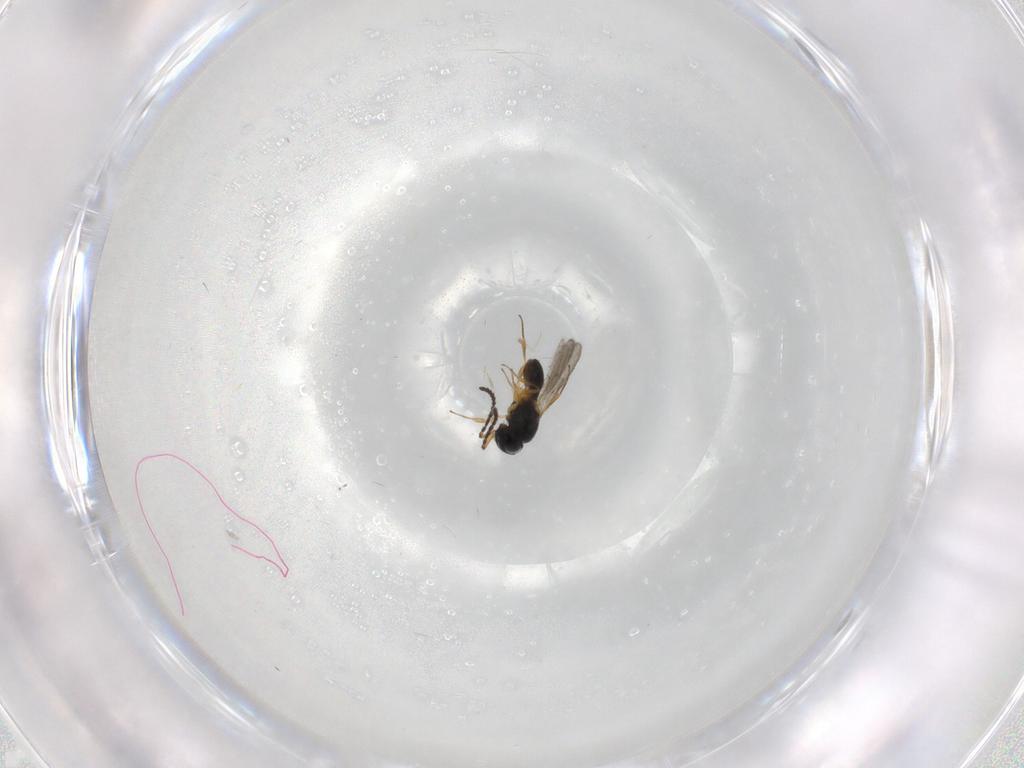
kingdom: Animalia
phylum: Arthropoda
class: Insecta
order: Hymenoptera
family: Scelionidae
